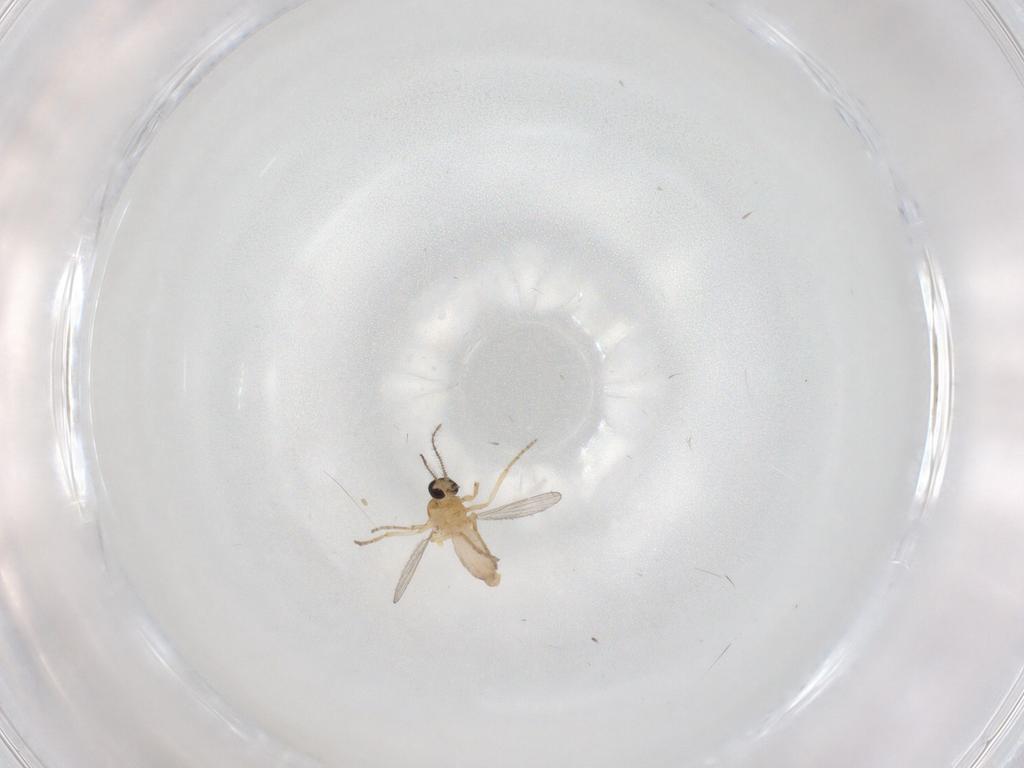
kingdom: Animalia
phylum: Arthropoda
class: Insecta
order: Diptera
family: Ceratopogonidae
